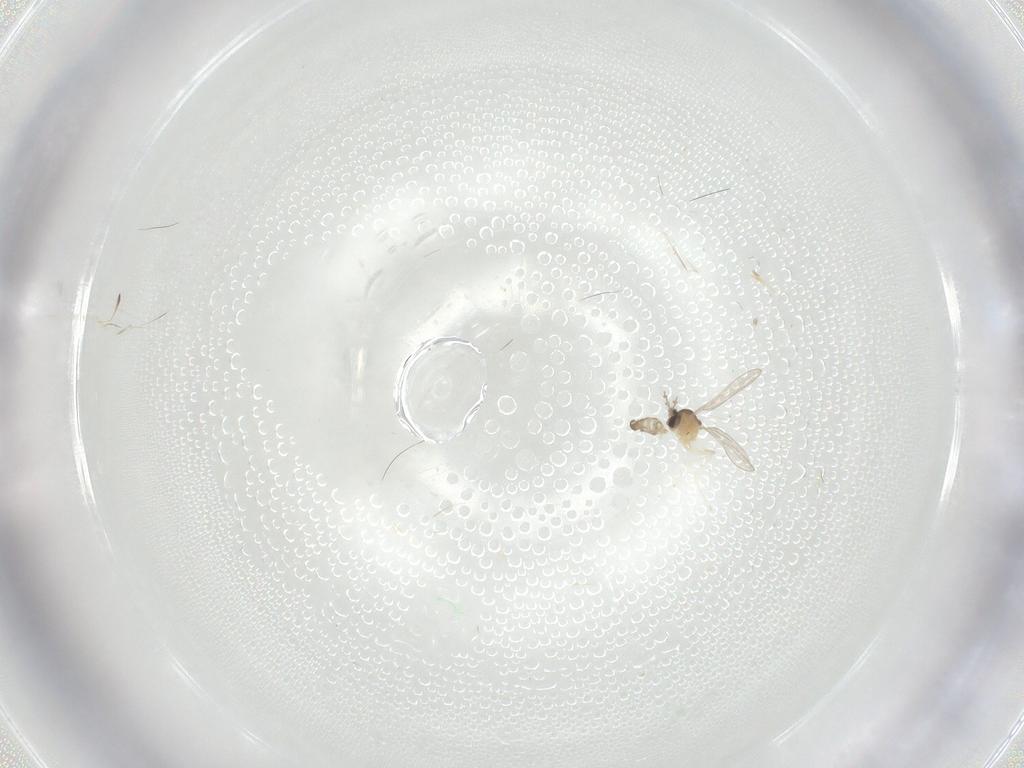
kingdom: Animalia
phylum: Arthropoda
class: Insecta
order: Diptera
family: Cecidomyiidae
